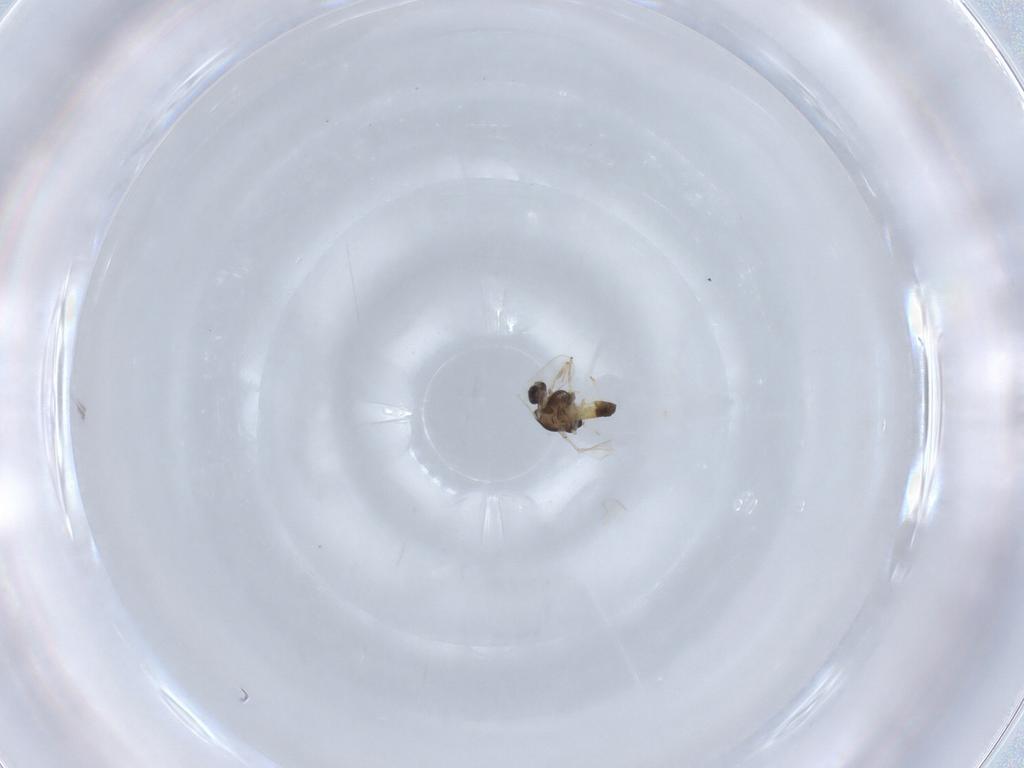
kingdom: Animalia
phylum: Arthropoda
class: Insecta
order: Diptera
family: Chironomidae
